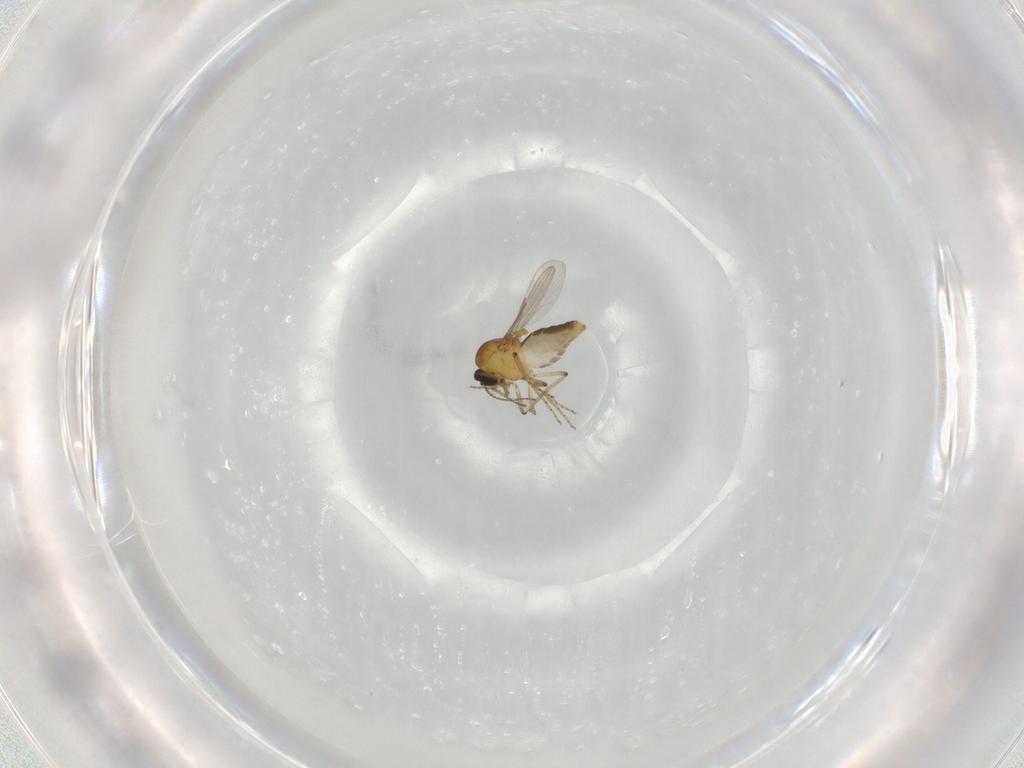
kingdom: Animalia
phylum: Arthropoda
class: Insecta
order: Diptera
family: Ceratopogonidae
